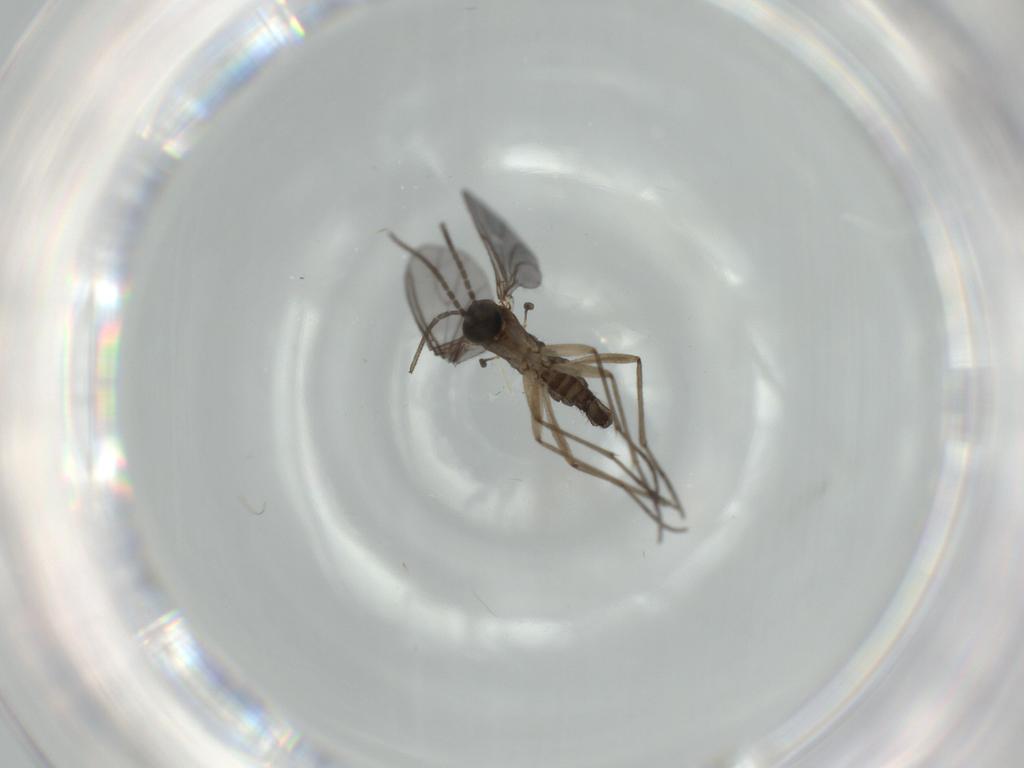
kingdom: Animalia
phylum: Arthropoda
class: Insecta
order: Diptera
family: Sciaridae
